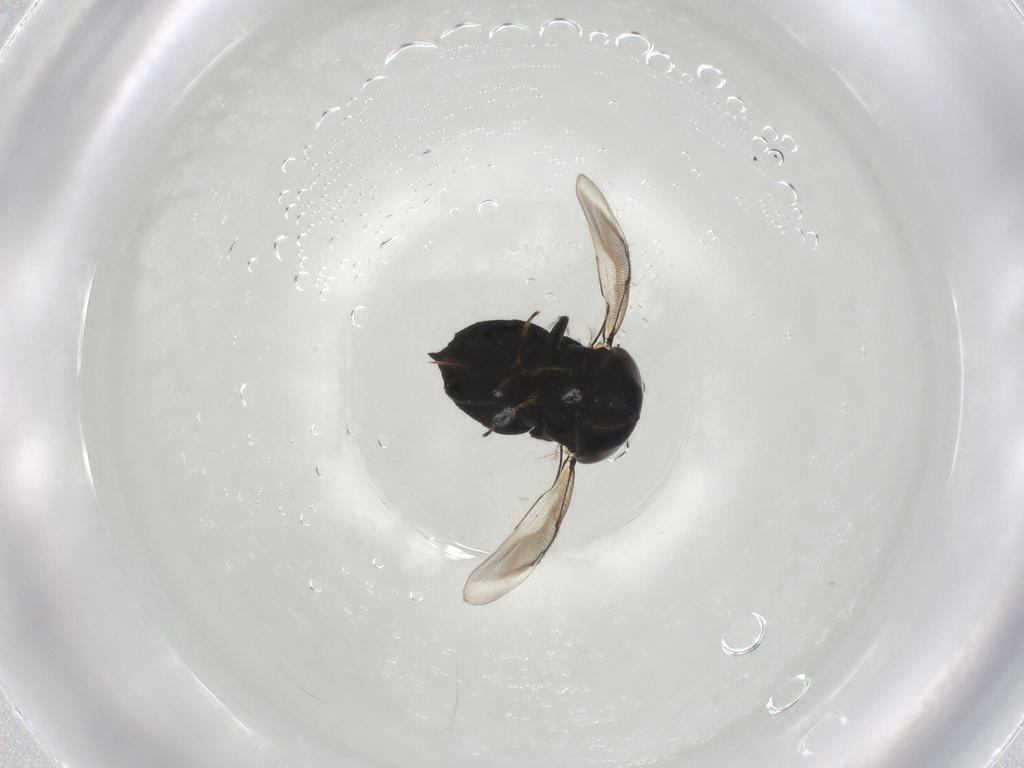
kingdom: Animalia
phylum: Arthropoda
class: Insecta
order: Hymenoptera
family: Eunotidae
